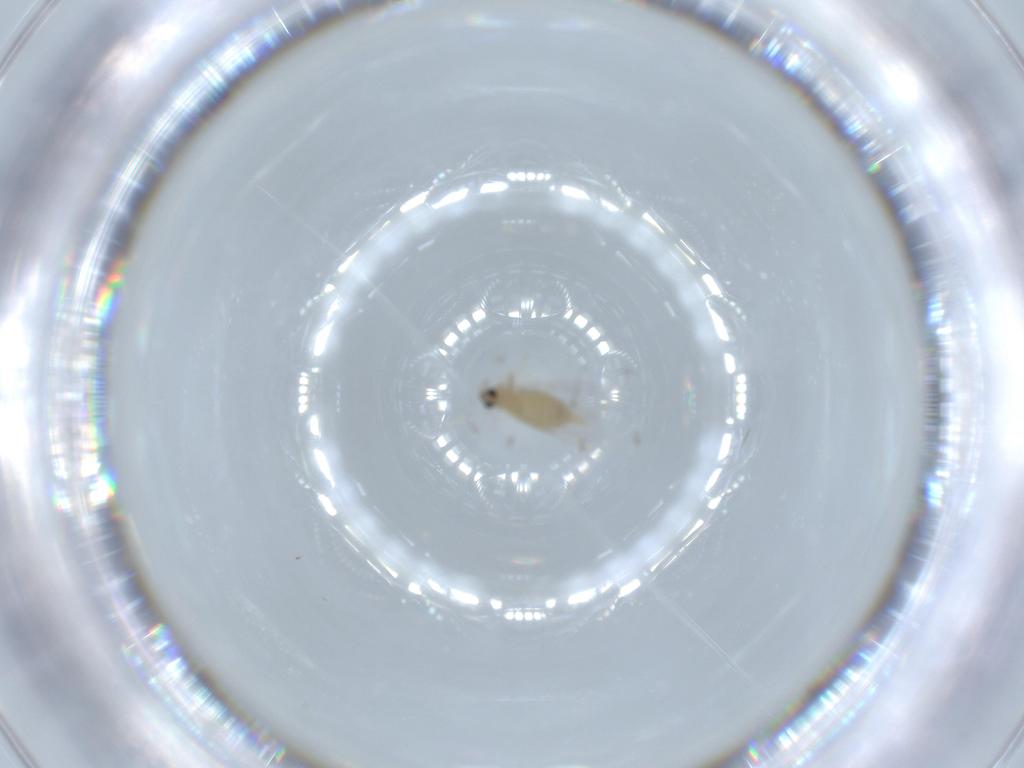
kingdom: Animalia
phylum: Arthropoda
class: Insecta
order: Diptera
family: Cecidomyiidae
